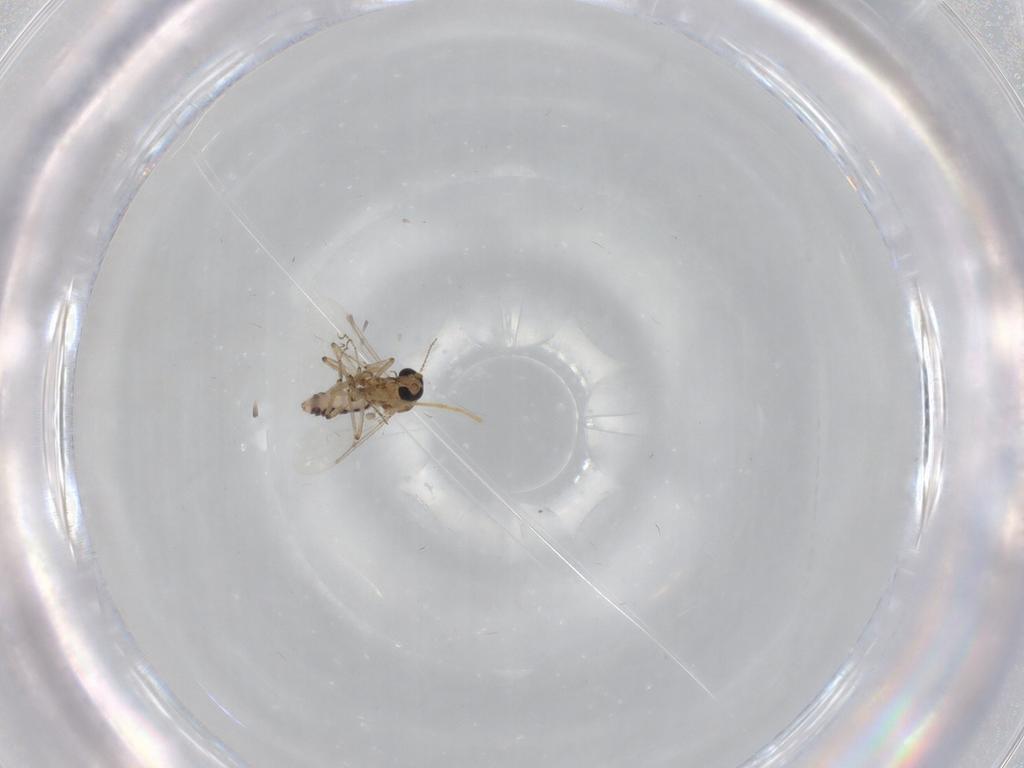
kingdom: Animalia
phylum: Arthropoda
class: Insecta
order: Diptera
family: Psychodidae
